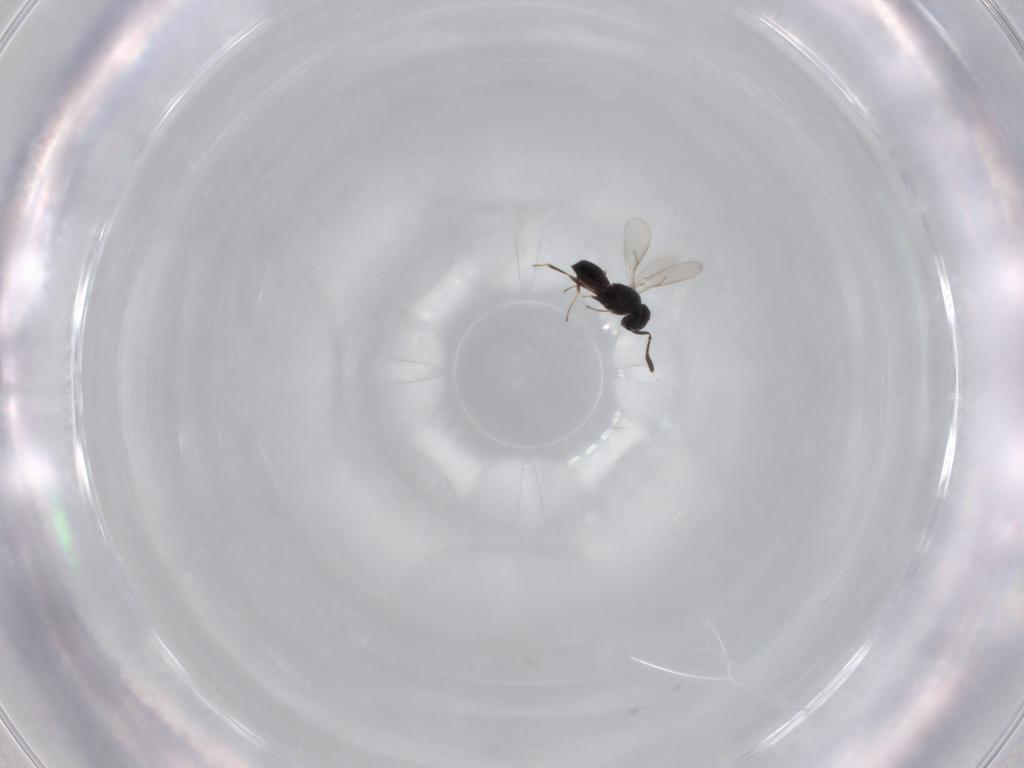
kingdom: Animalia
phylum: Arthropoda
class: Insecta
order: Hymenoptera
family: Scelionidae
